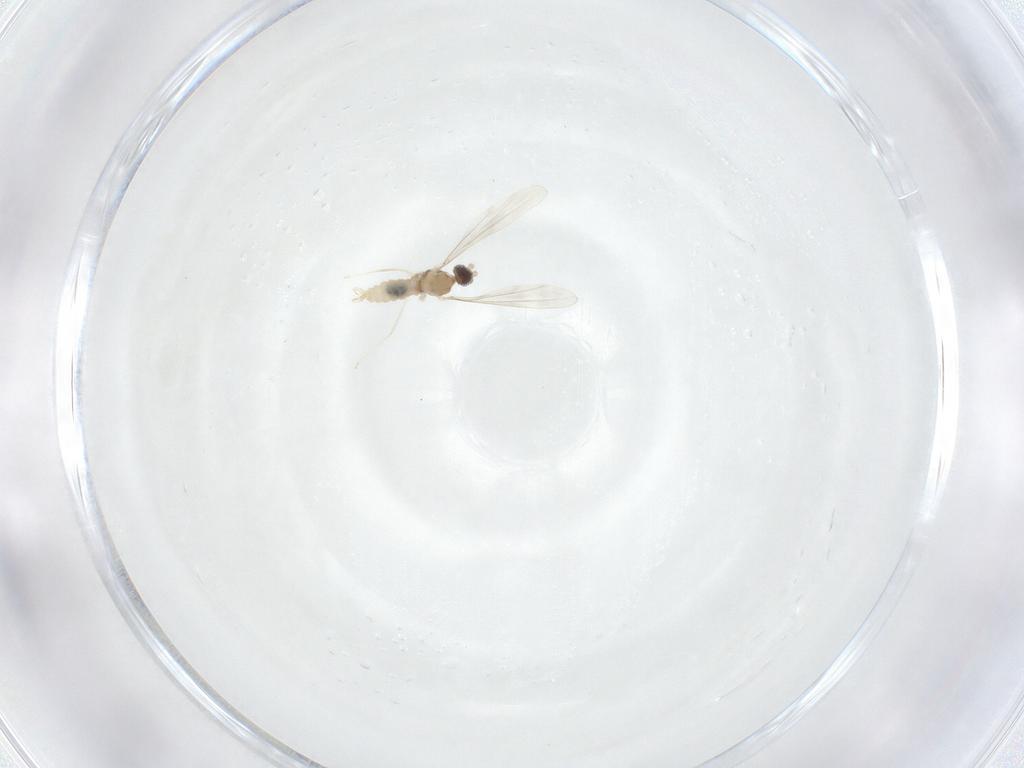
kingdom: Animalia
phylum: Arthropoda
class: Insecta
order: Diptera
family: Cecidomyiidae
